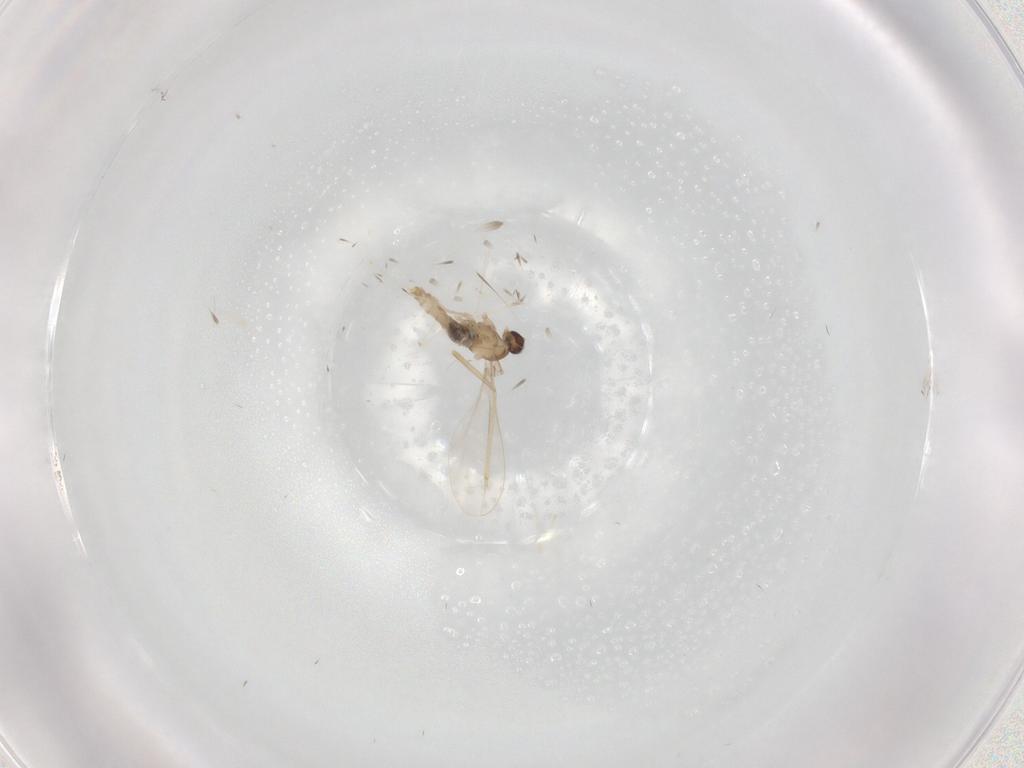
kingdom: Animalia
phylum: Arthropoda
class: Insecta
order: Diptera
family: Cecidomyiidae
